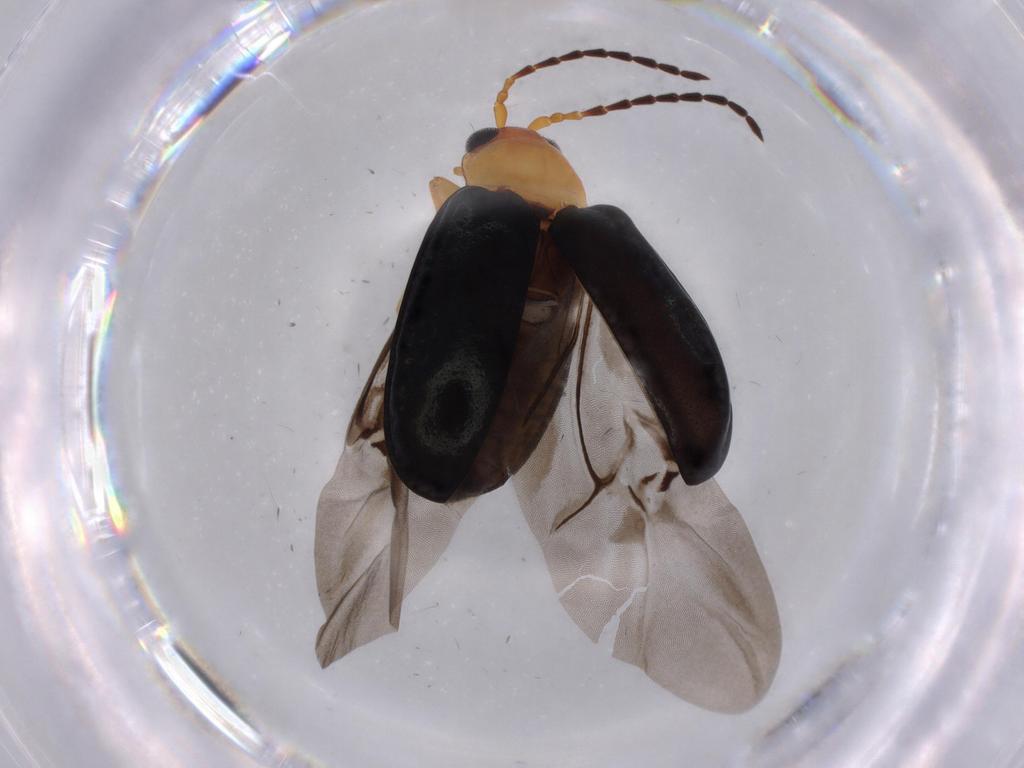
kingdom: Animalia
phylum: Arthropoda
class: Insecta
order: Coleoptera
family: Chrysomelidae
